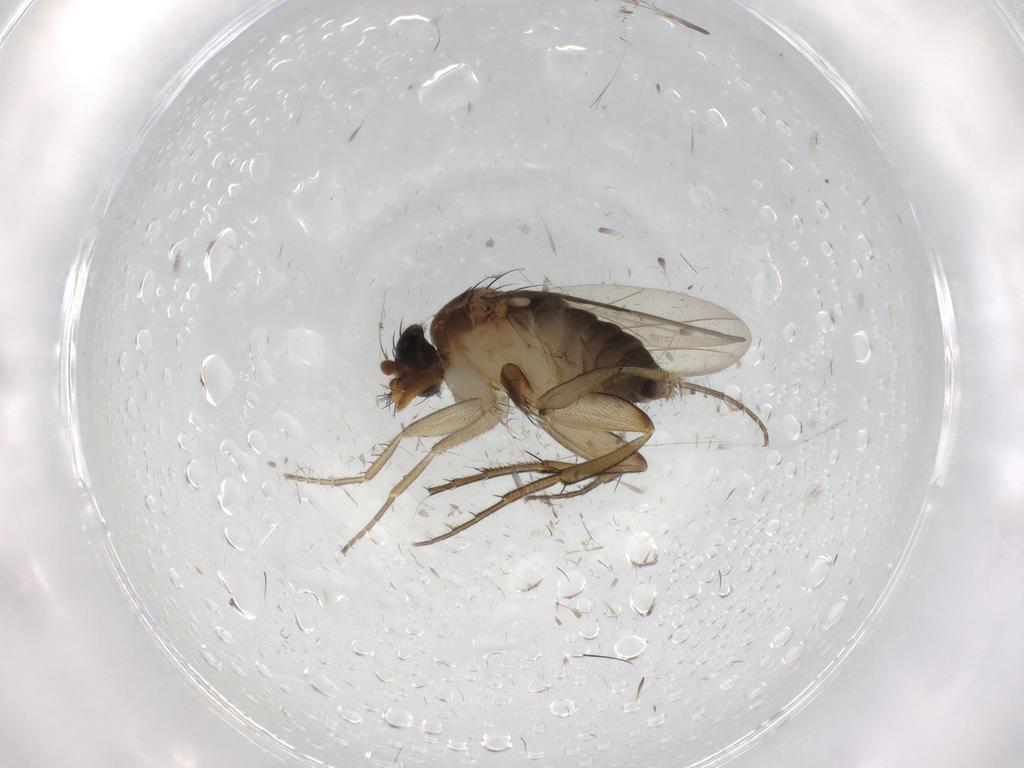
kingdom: Animalia
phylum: Arthropoda
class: Insecta
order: Diptera
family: Phoridae
